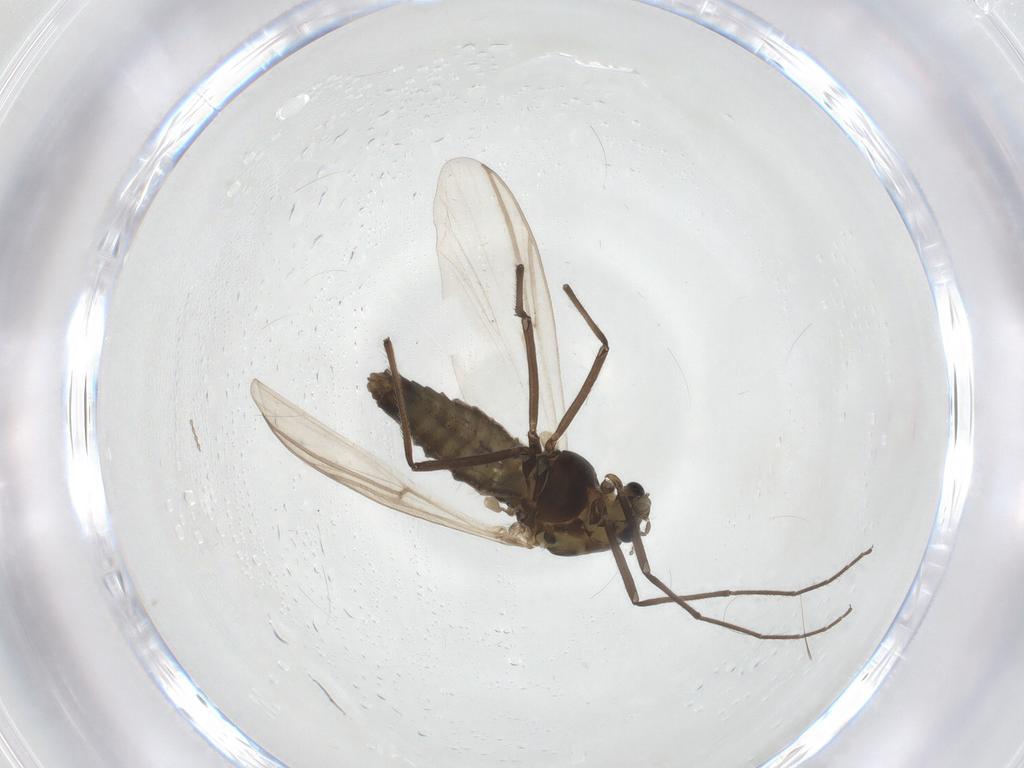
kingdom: Animalia
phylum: Arthropoda
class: Insecta
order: Diptera
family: Chironomidae
